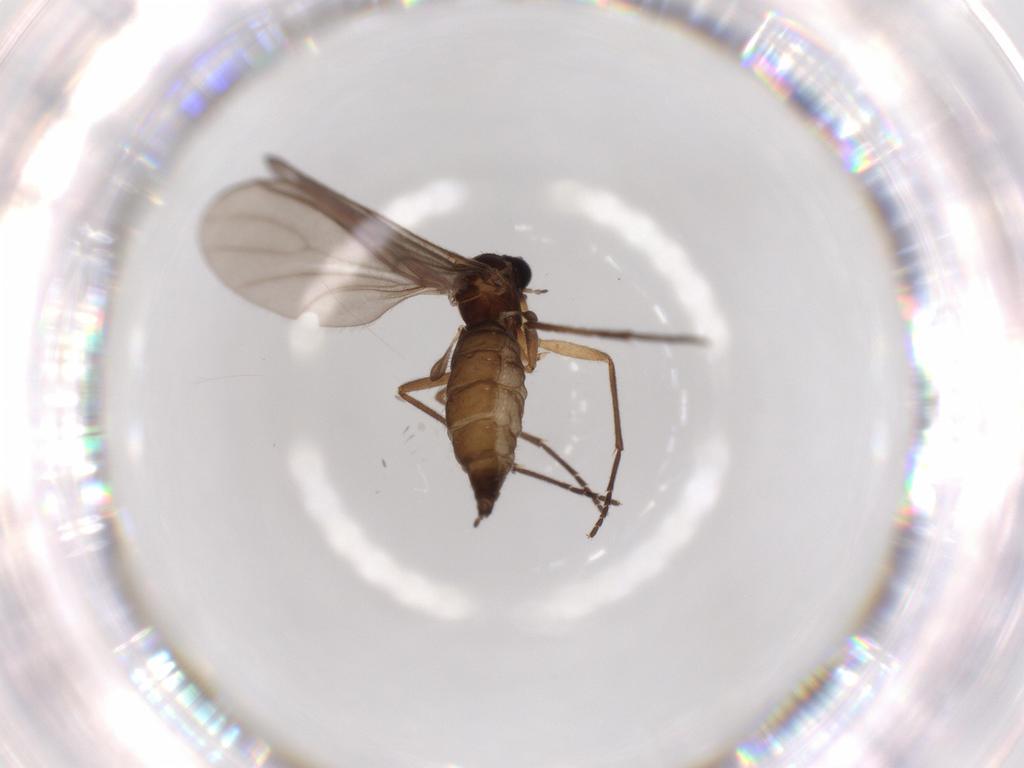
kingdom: Animalia
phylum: Arthropoda
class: Insecta
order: Diptera
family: Sciaridae
